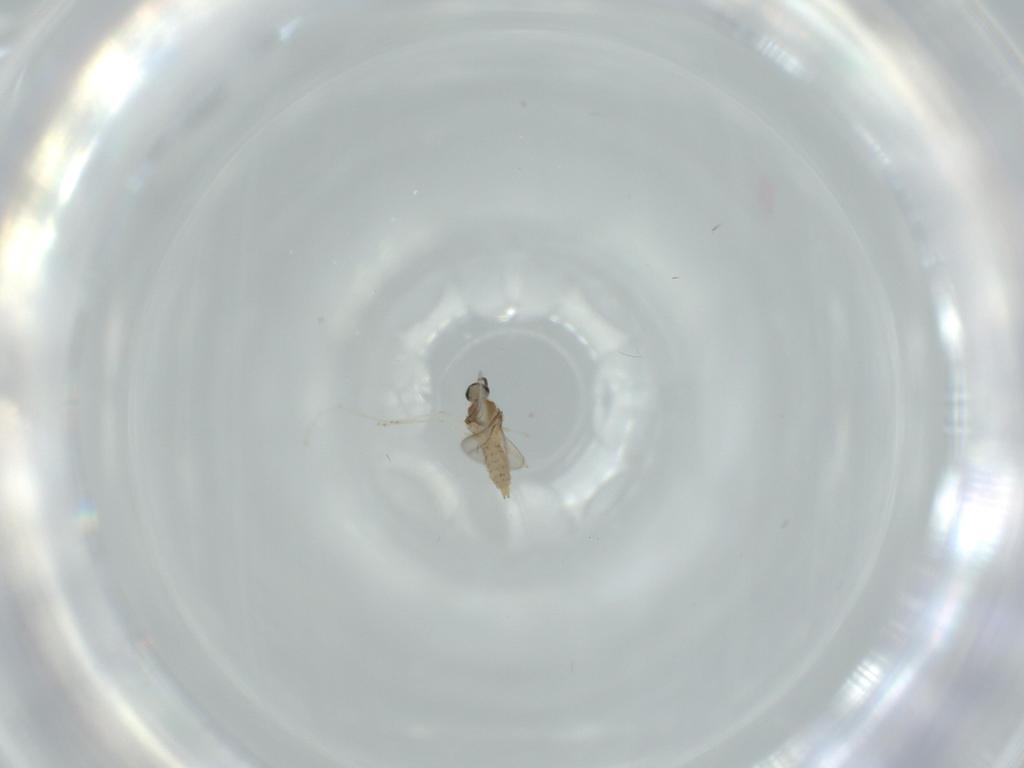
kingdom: Animalia
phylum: Arthropoda
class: Insecta
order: Diptera
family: Cecidomyiidae
